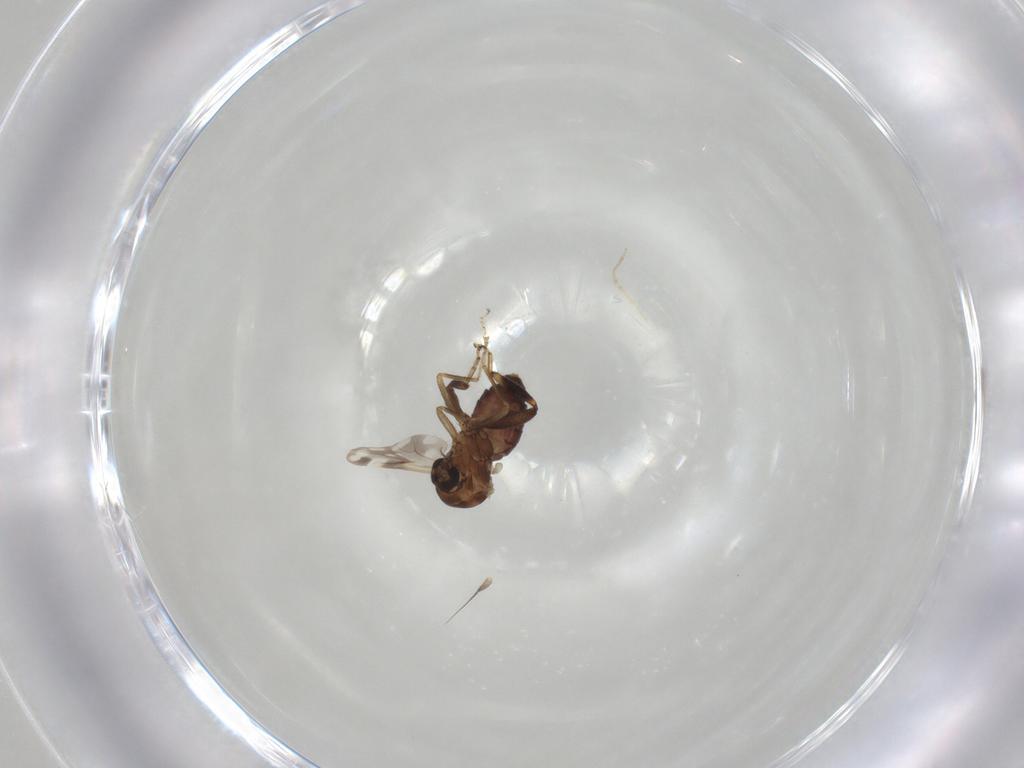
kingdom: Animalia
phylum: Arthropoda
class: Insecta
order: Diptera
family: Ceratopogonidae
